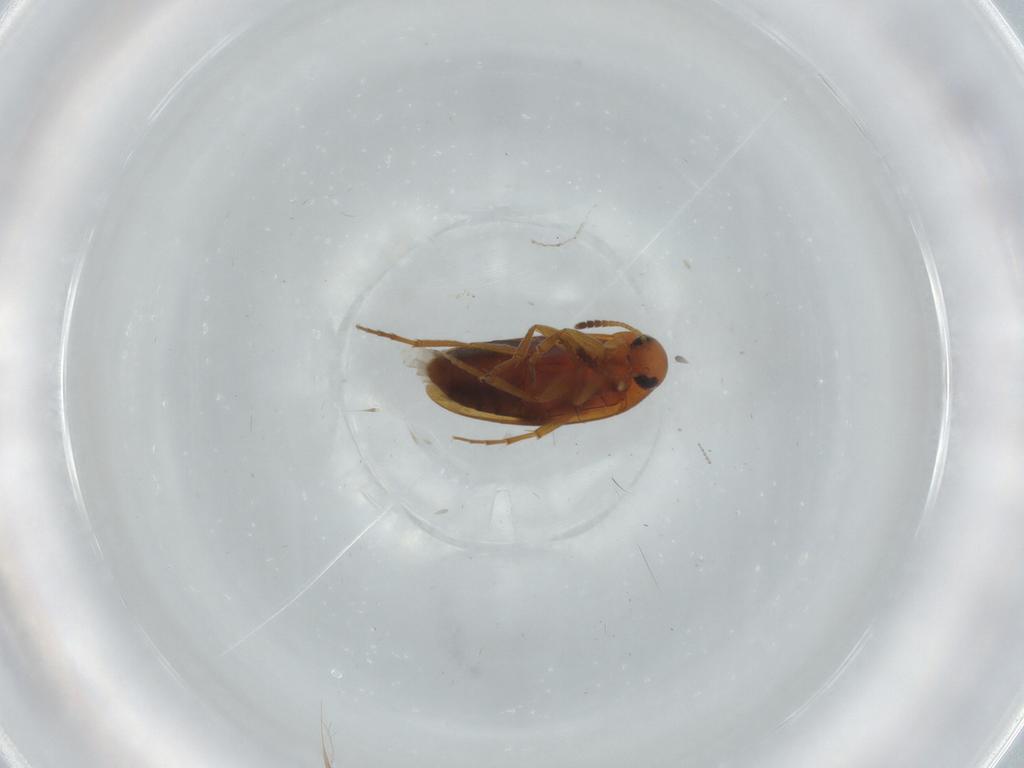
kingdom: Animalia
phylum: Arthropoda
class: Insecta
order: Coleoptera
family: Scraptiidae
